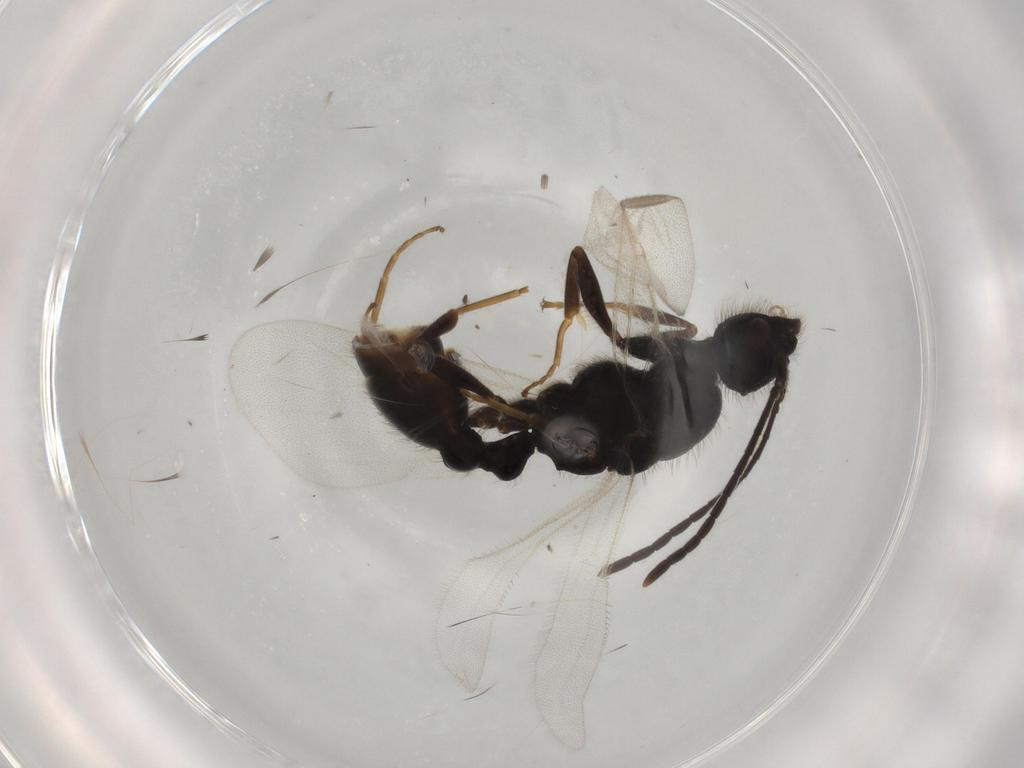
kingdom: Animalia
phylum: Arthropoda
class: Insecta
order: Hymenoptera
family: Formicidae
